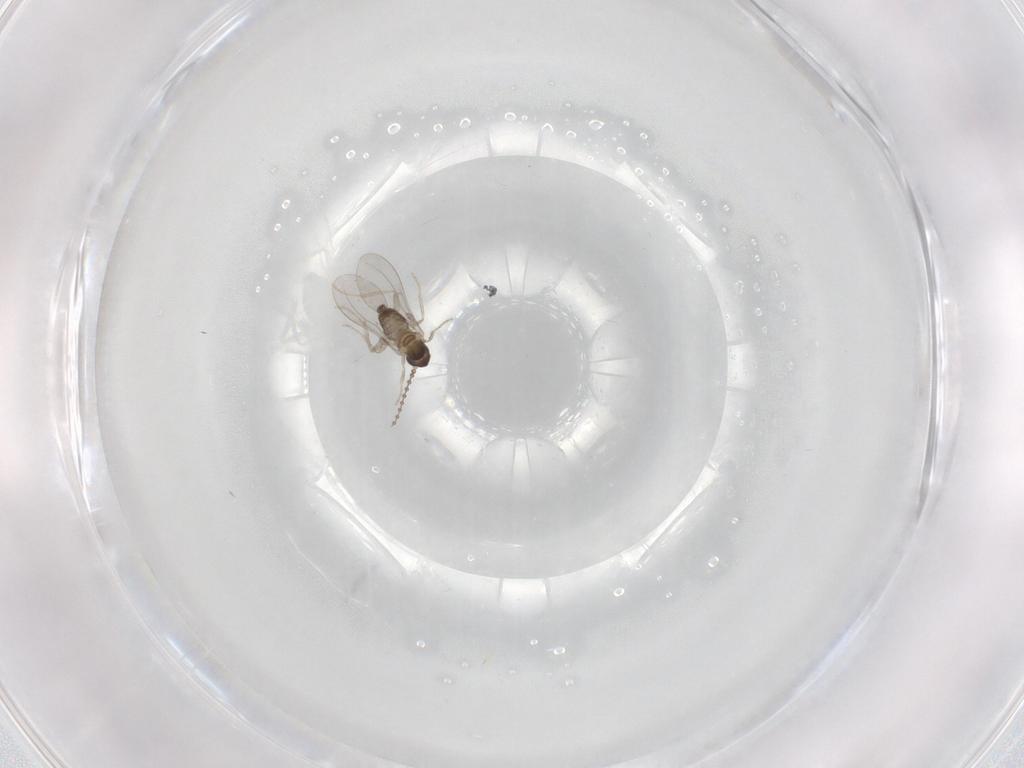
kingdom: Animalia
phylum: Arthropoda
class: Insecta
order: Diptera
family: Cecidomyiidae
